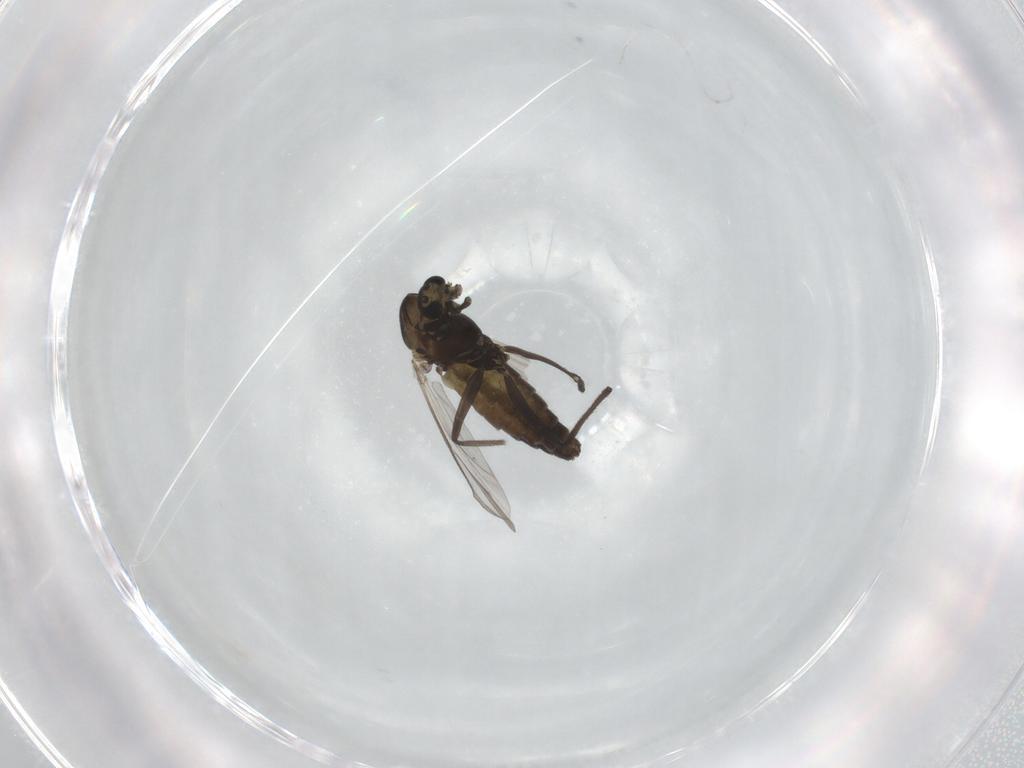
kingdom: Animalia
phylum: Arthropoda
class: Insecta
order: Diptera
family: Chironomidae
